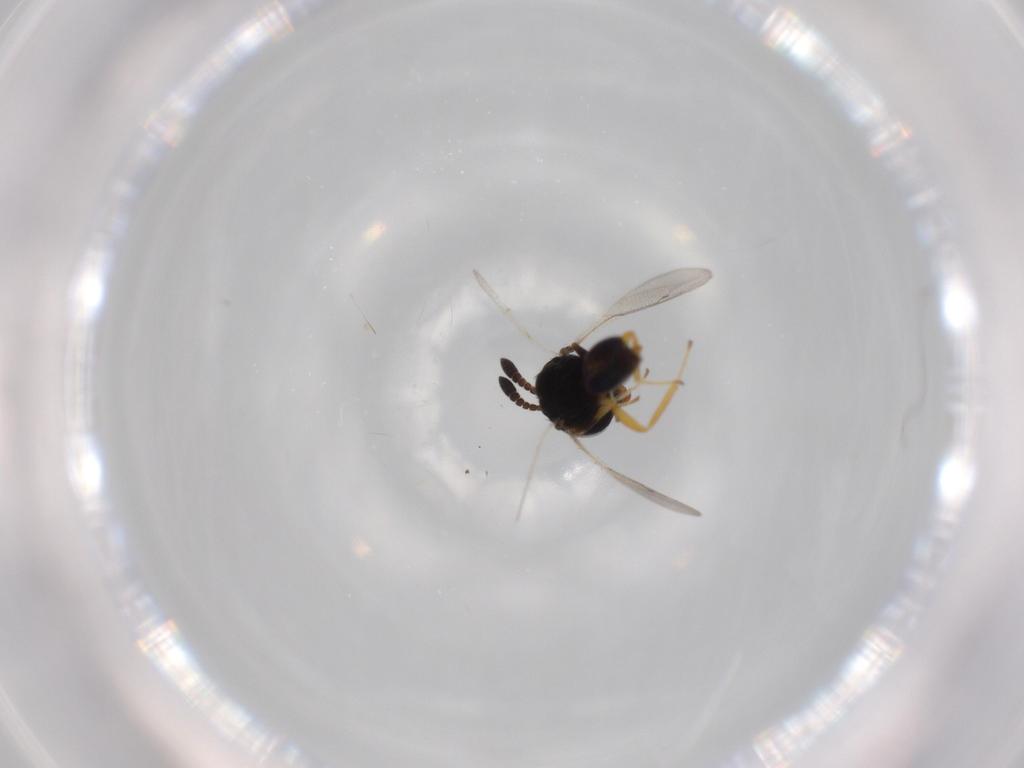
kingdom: Animalia
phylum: Arthropoda
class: Insecta
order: Hymenoptera
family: Pteromalidae
